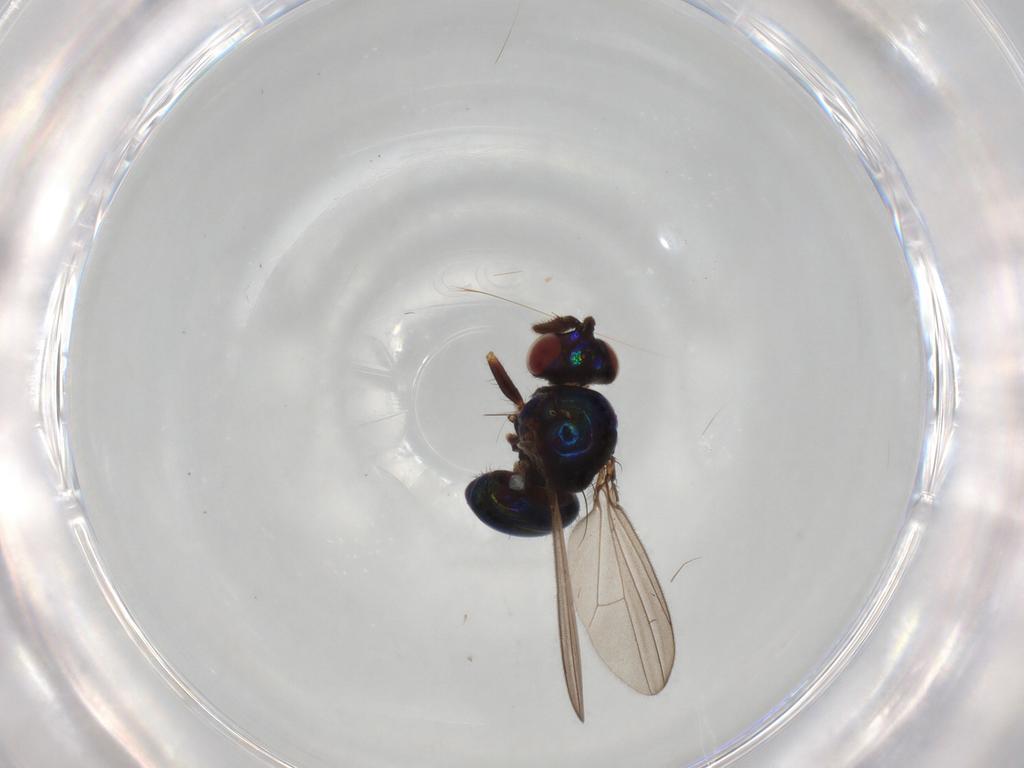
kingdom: Animalia
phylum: Arthropoda
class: Insecta
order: Diptera
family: Ephydridae
